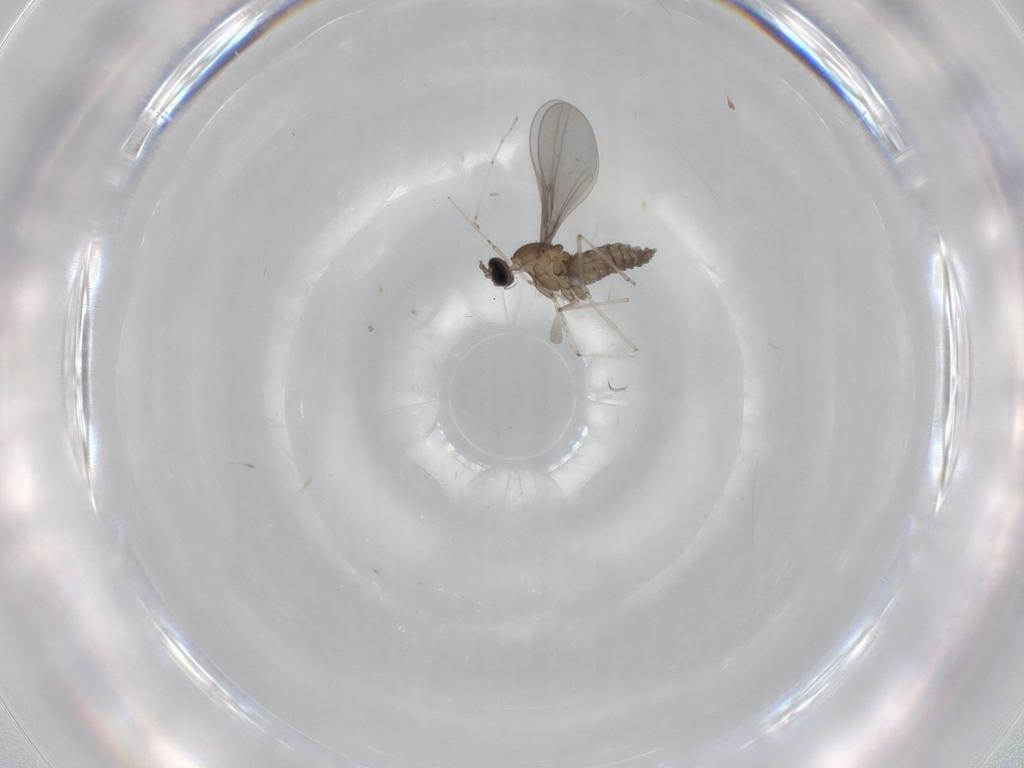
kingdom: Animalia
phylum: Arthropoda
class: Insecta
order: Diptera
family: Cecidomyiidae
